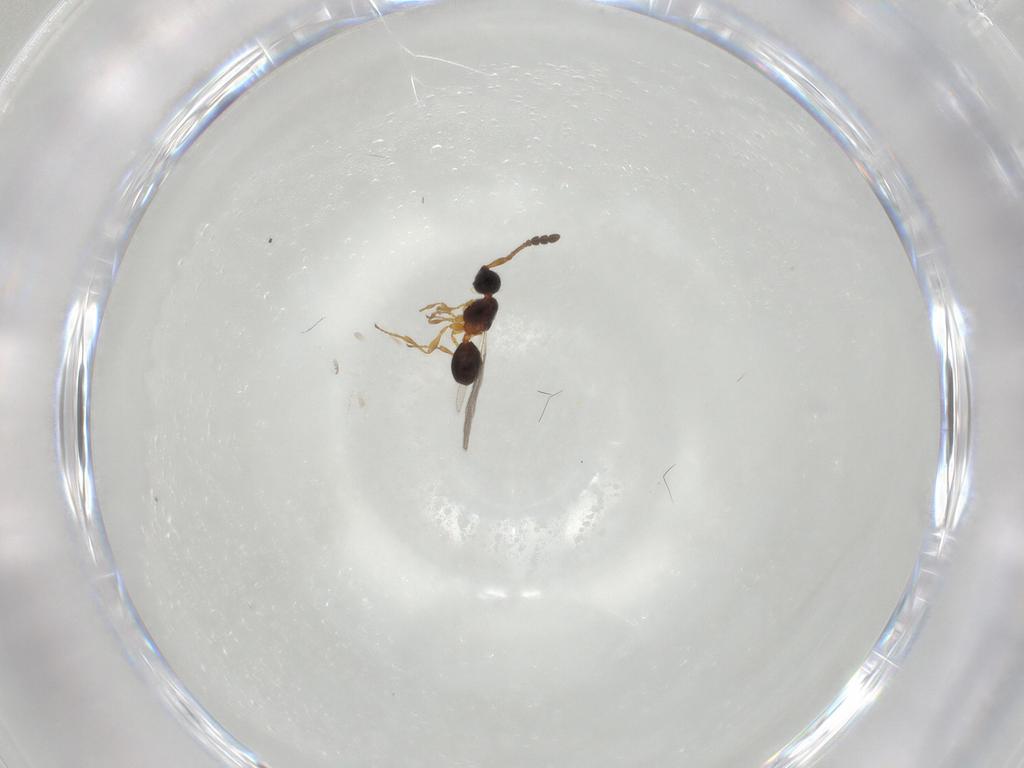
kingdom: Animalia
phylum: Arthropoda
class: Insecta
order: Hymenoptera
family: Diapriidae
